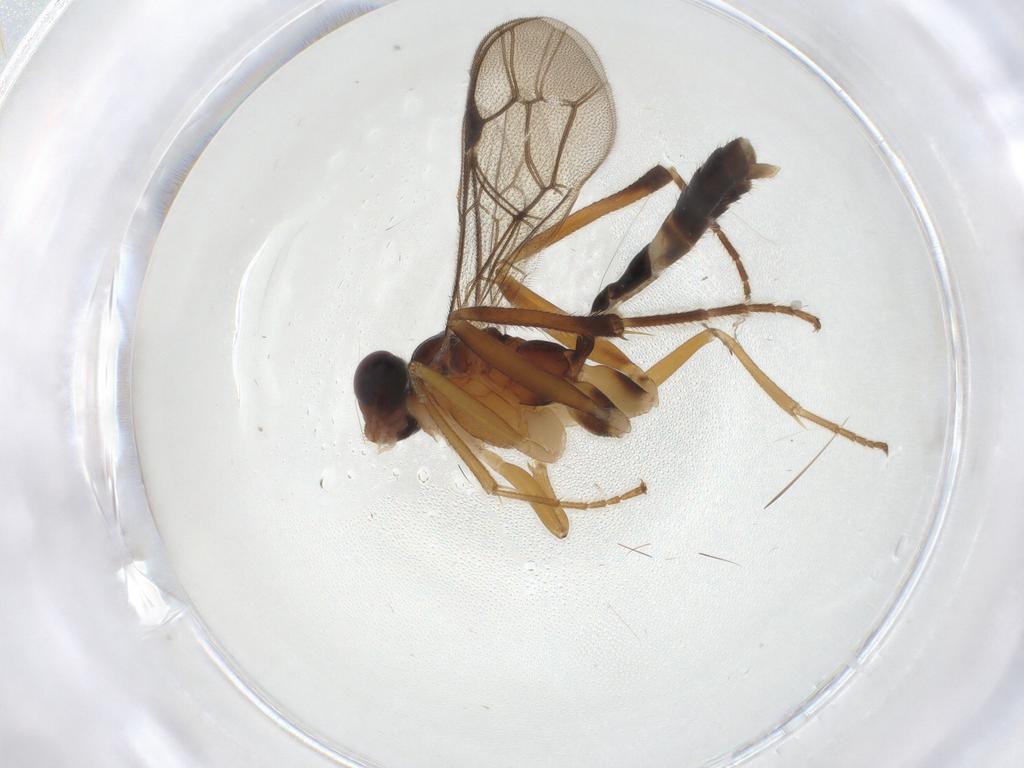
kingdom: Animalia
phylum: Arthropoda
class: Insecta
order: Hymenoptera
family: Ichneumonidae
